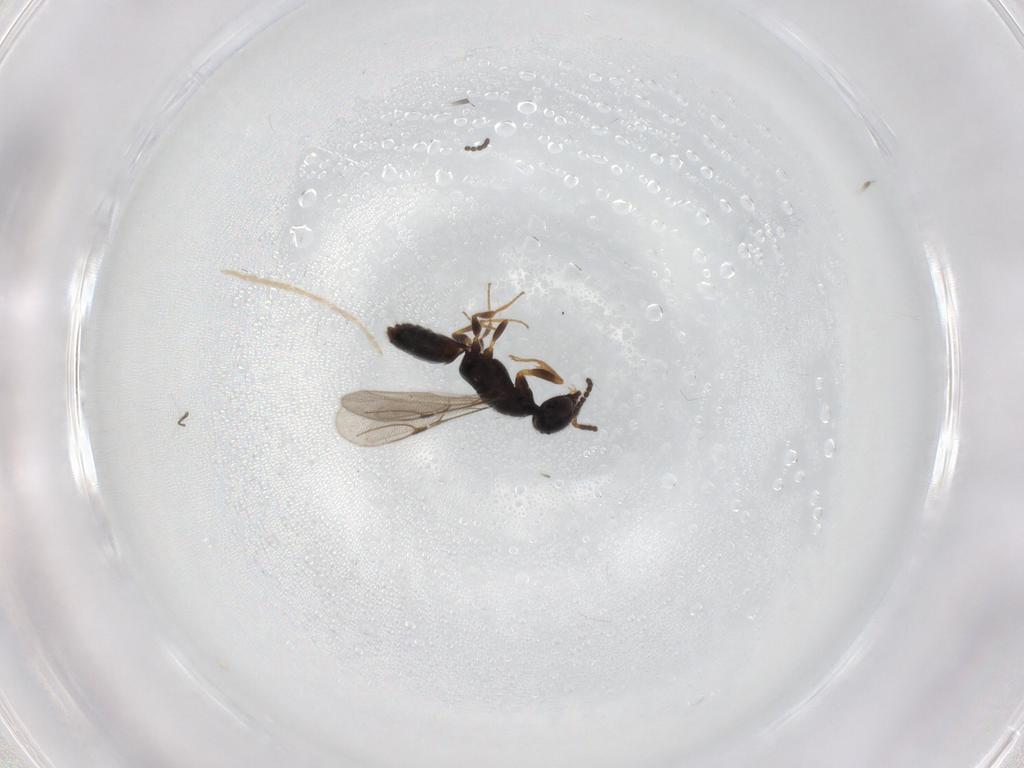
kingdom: Animalia
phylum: Arthropoda
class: Insecta
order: Hymenoptera
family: Bethylidae
